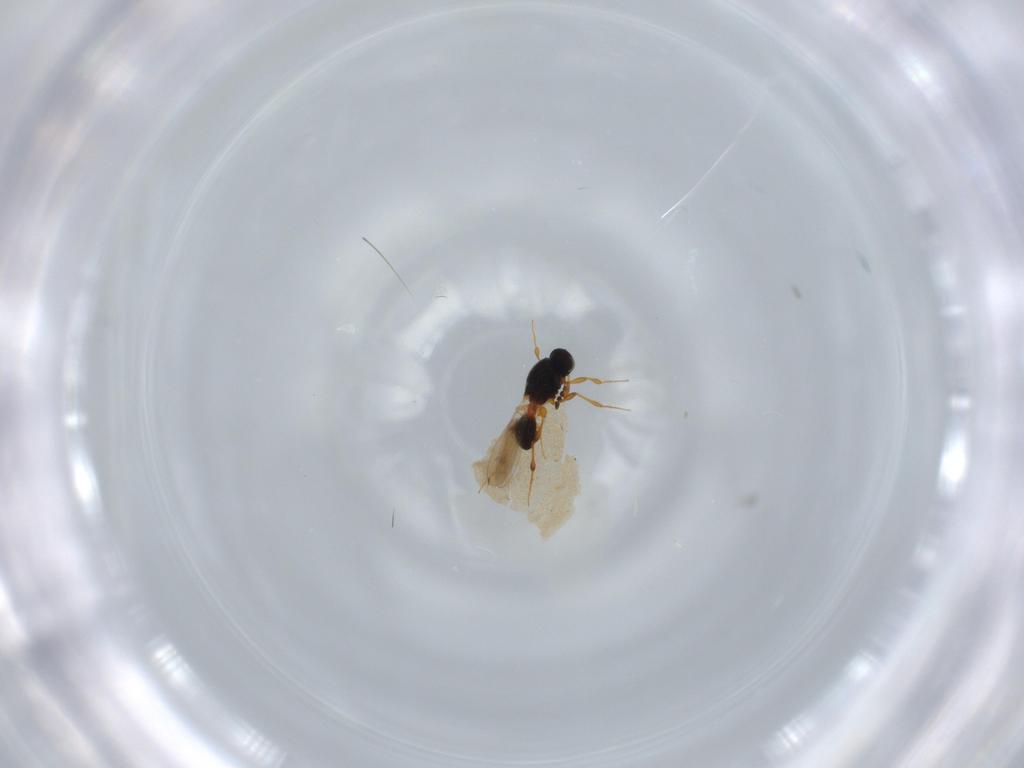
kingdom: Animalia
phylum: Arthropoda
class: Insecta
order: Hymenoptera
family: Platygastridae
